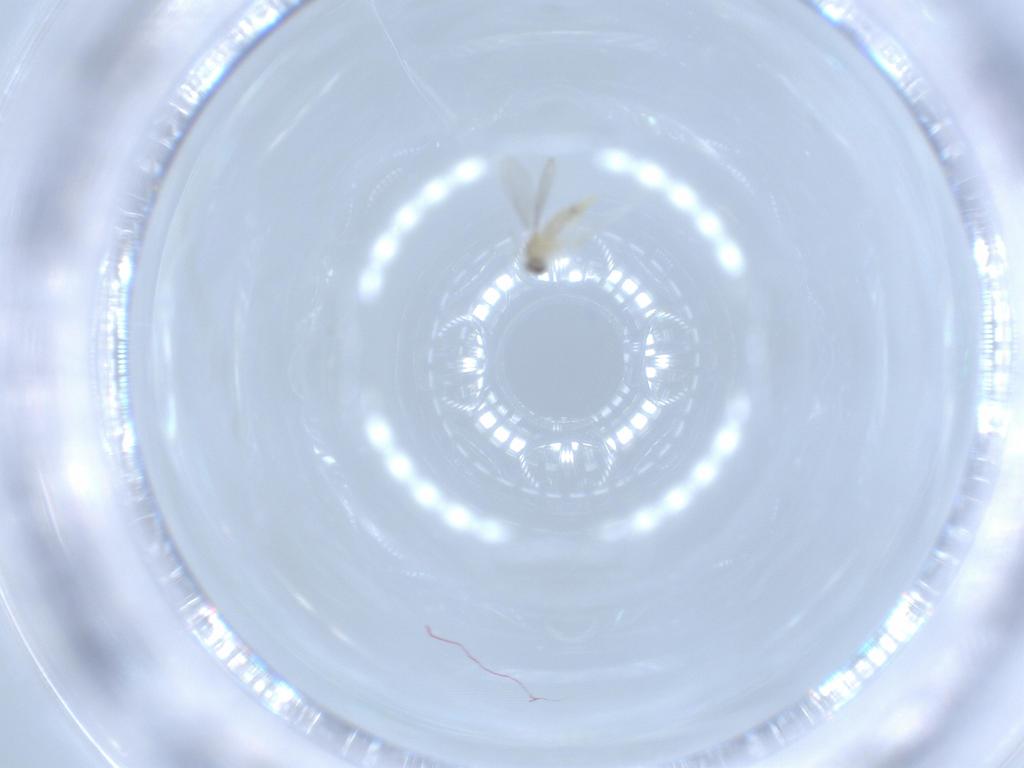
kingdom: Animalia
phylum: Arthropoda
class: Insecta
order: Diptera
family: Cecidomyiidae
